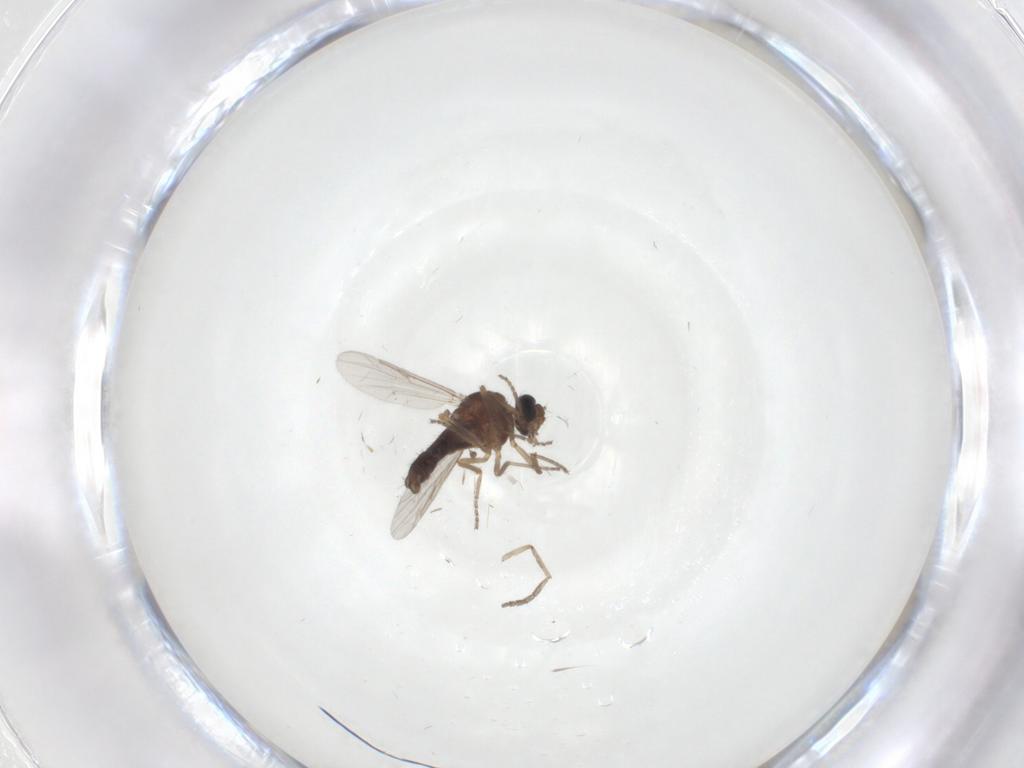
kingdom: Animalia
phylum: Arthropoda
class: Insecta
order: Diptera
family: Ceratopogonidae
